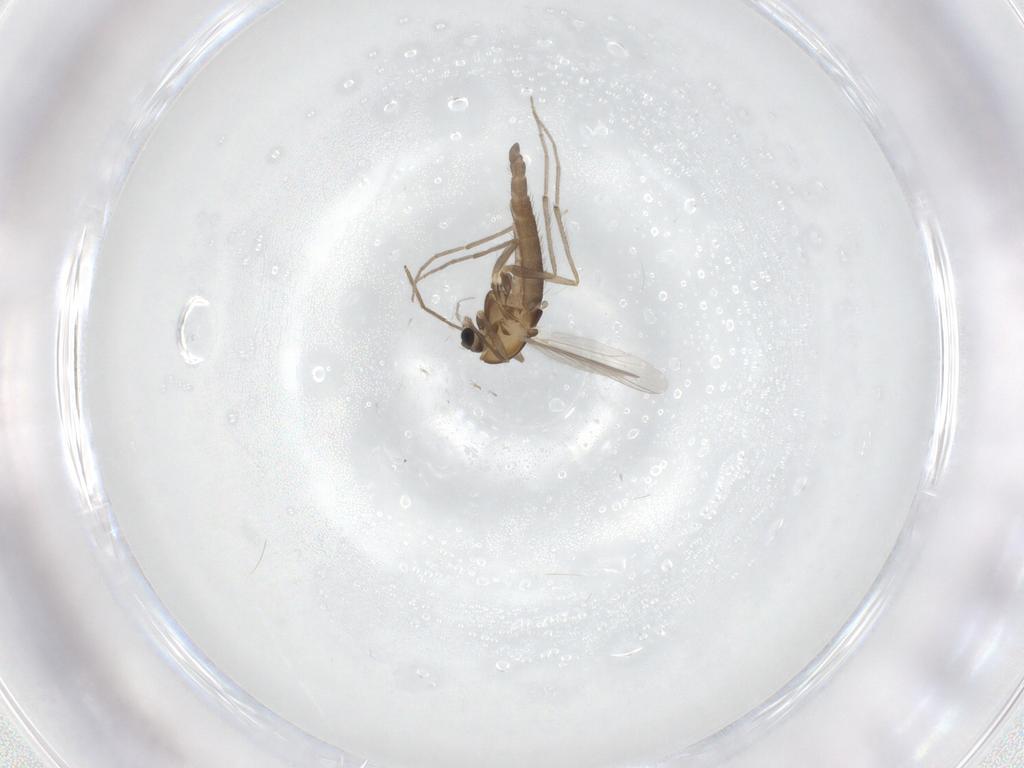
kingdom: Animalia
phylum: Arthropoda
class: Insecta
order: Diptera
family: Chironomidae
